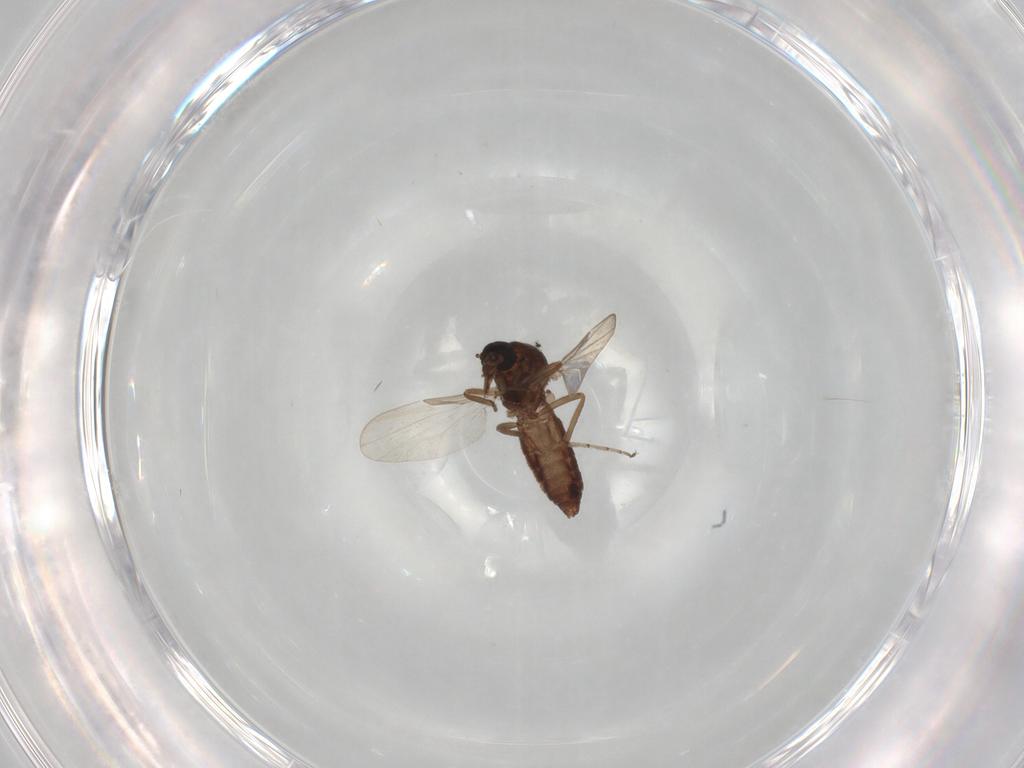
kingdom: Animalia
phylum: Arthropoda
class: Insecta
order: Diptera
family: Ceratopogonidae
